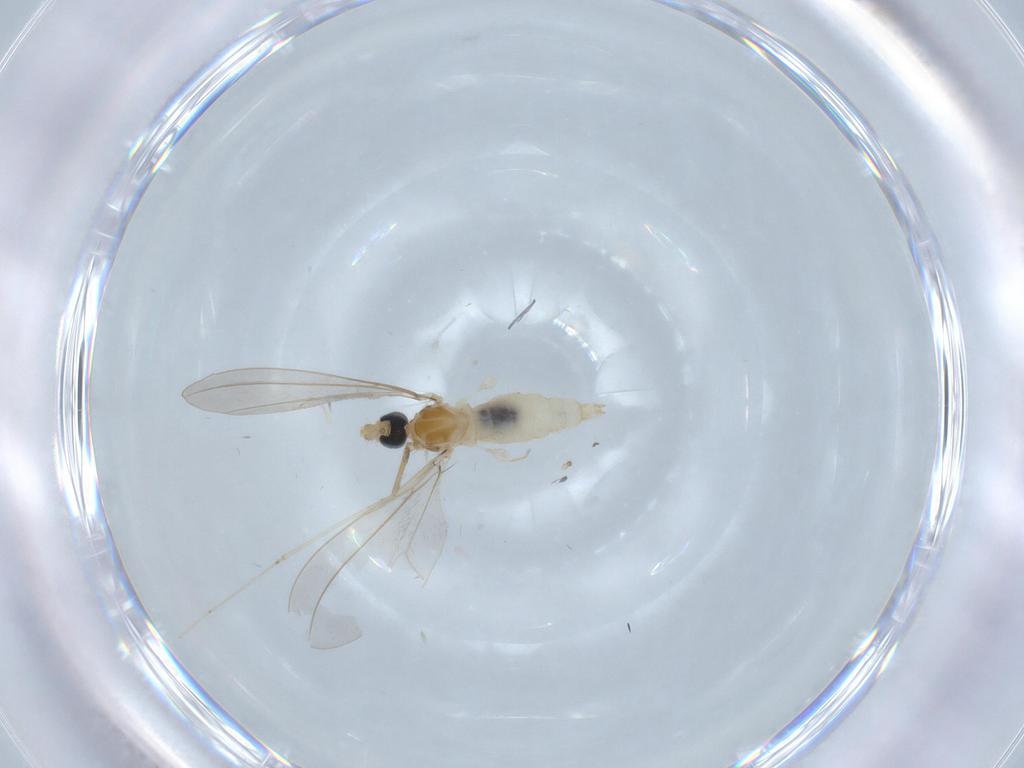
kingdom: Animalia
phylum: Arthropoda
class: Insecta
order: Diptera
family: Cecidomyiidae
